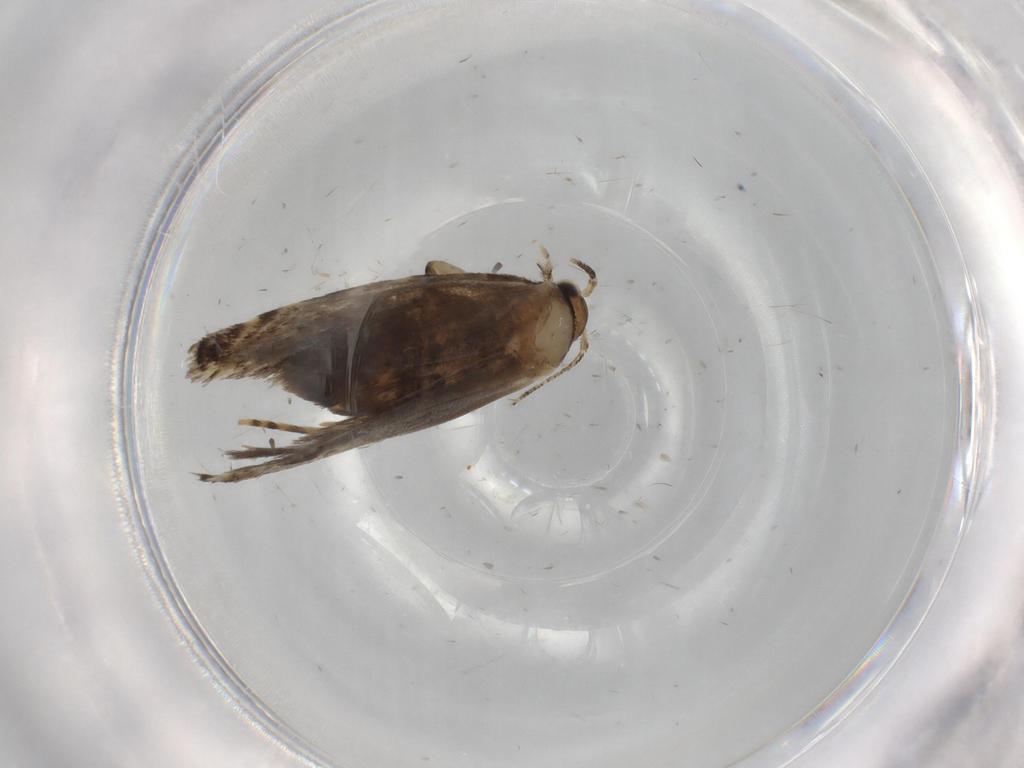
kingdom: Animalia
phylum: Arthropoda
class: Insecta
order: Lepidoptera
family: Tineidae
